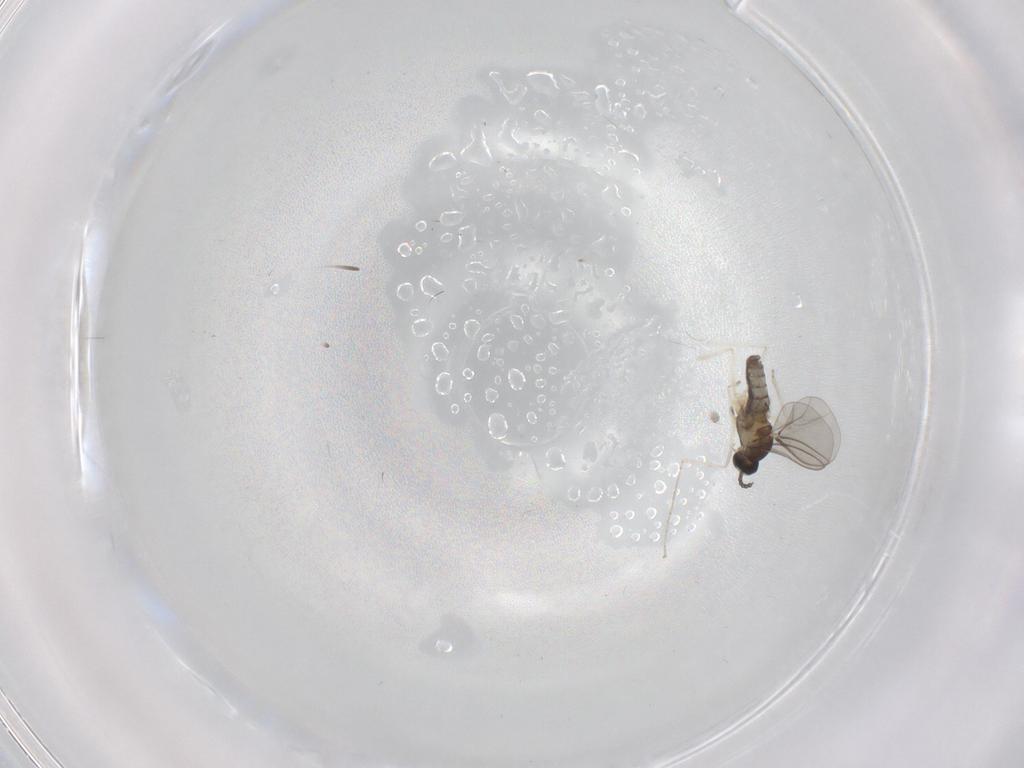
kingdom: Animalia
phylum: Arthropoda
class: Insecta
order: Diptera
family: Cecidomyiidae
